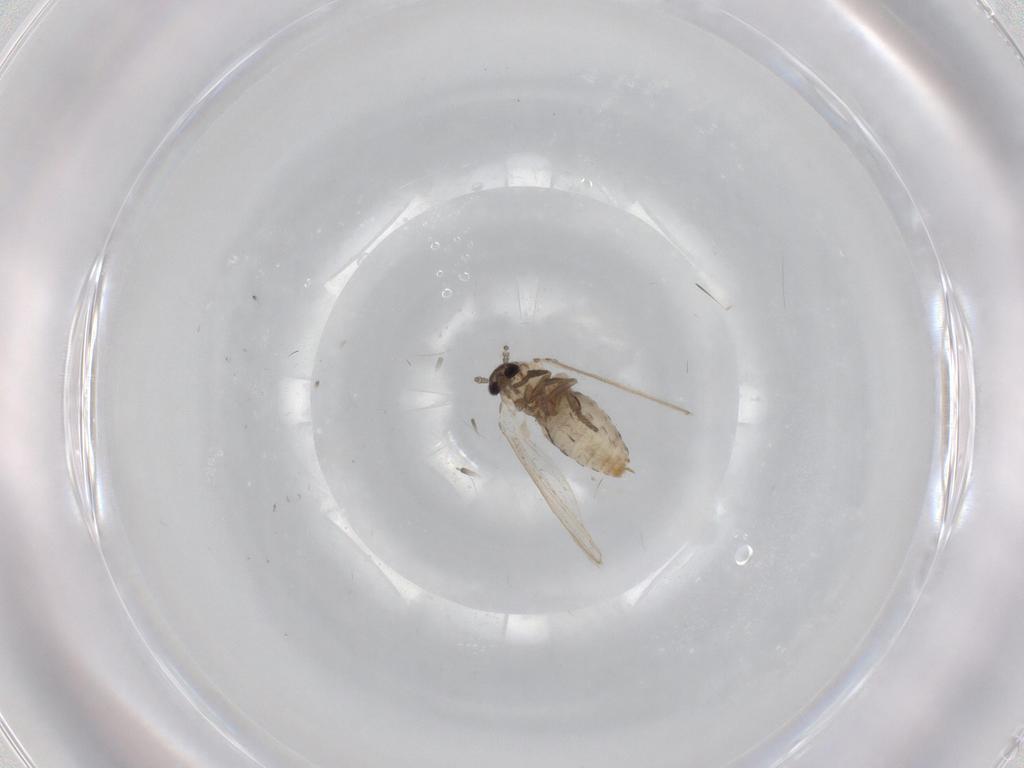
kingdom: Animalia
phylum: Arthropoda
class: Insecta
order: Diptera
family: Psychodidae
